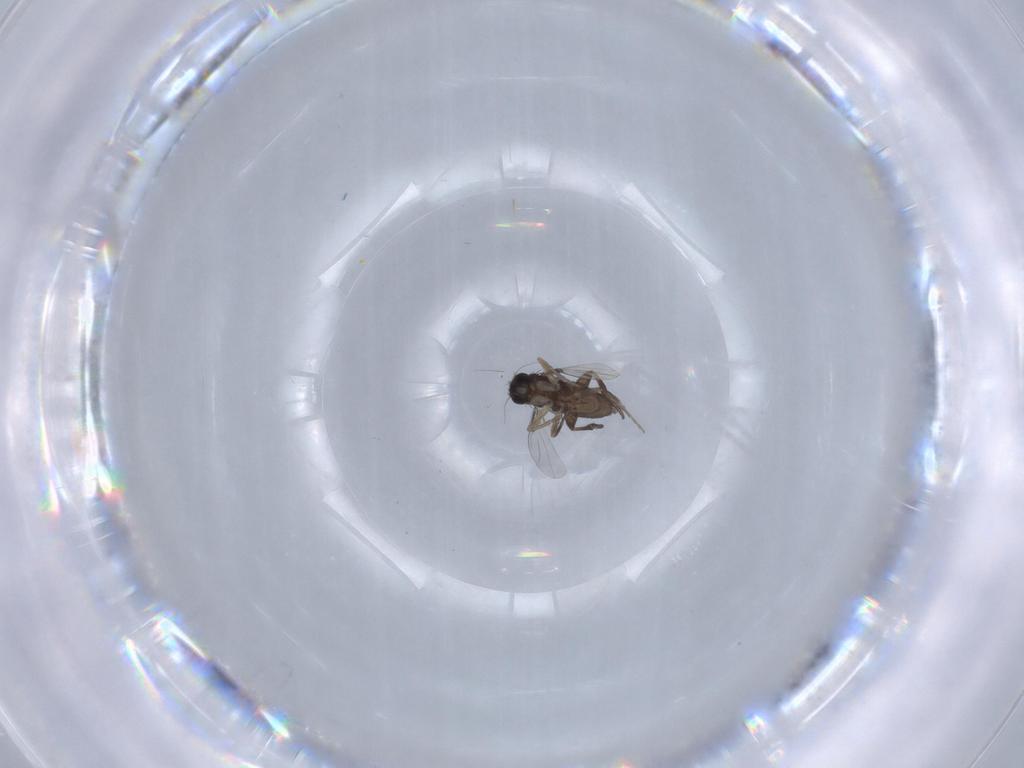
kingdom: Animalia
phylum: Arthropoda
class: Insecta
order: Diptera
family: Phoridae
